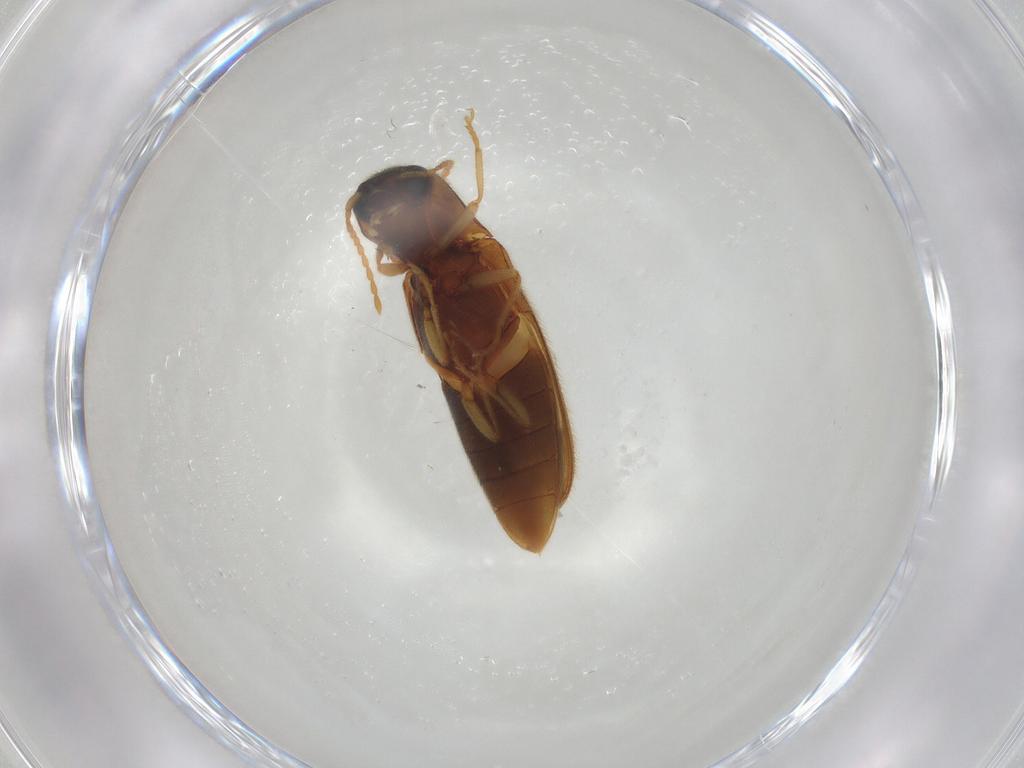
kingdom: Animalia
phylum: Arthropoda
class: Insecta
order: Coleoptera
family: Elateridae
